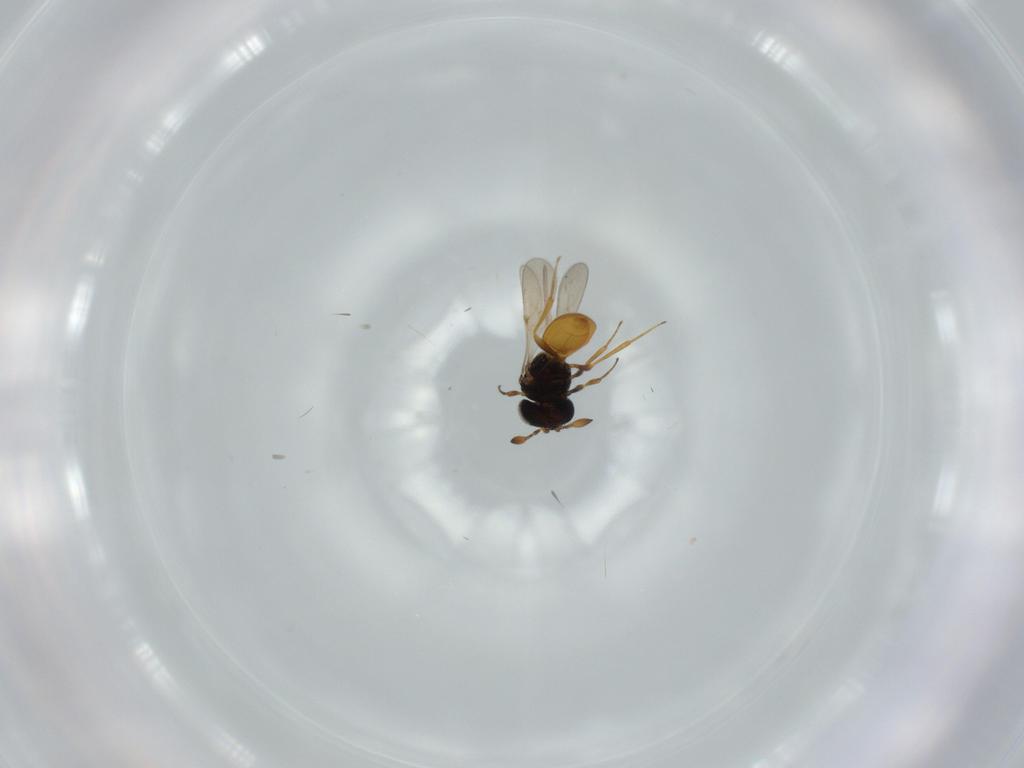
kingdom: Animalia
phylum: Arthropoda
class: Insecta
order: Hymenoptera
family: Scelionidae
